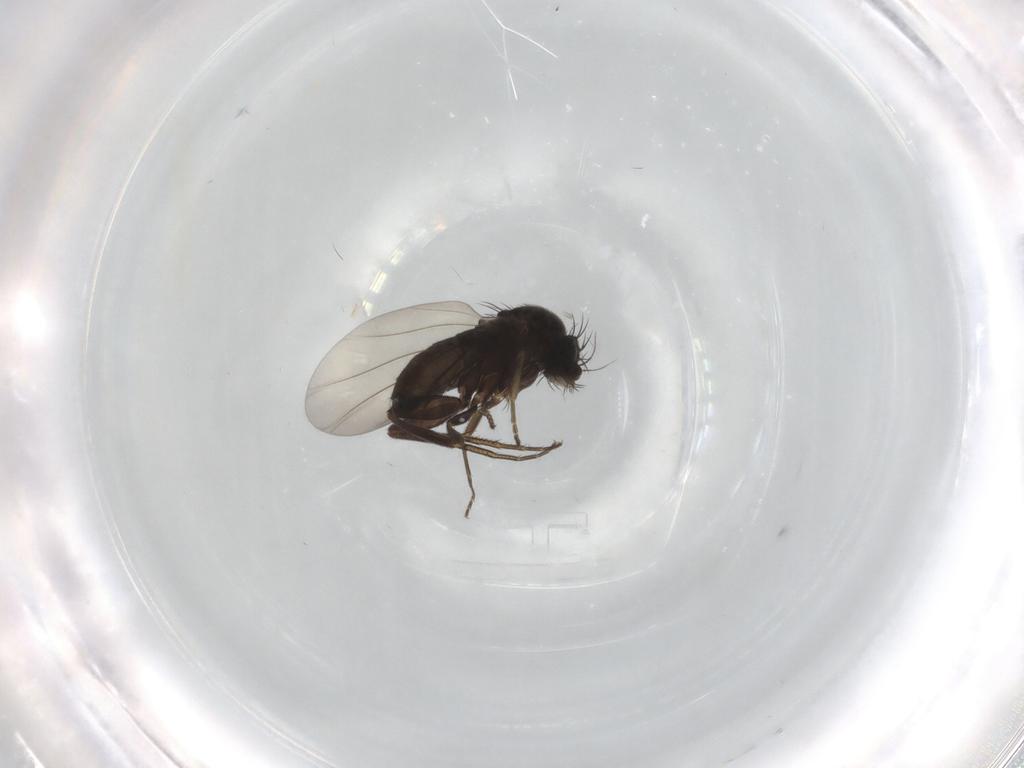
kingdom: Animalia
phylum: Arthropoda
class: Insecta
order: Diptera
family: Phoridae
